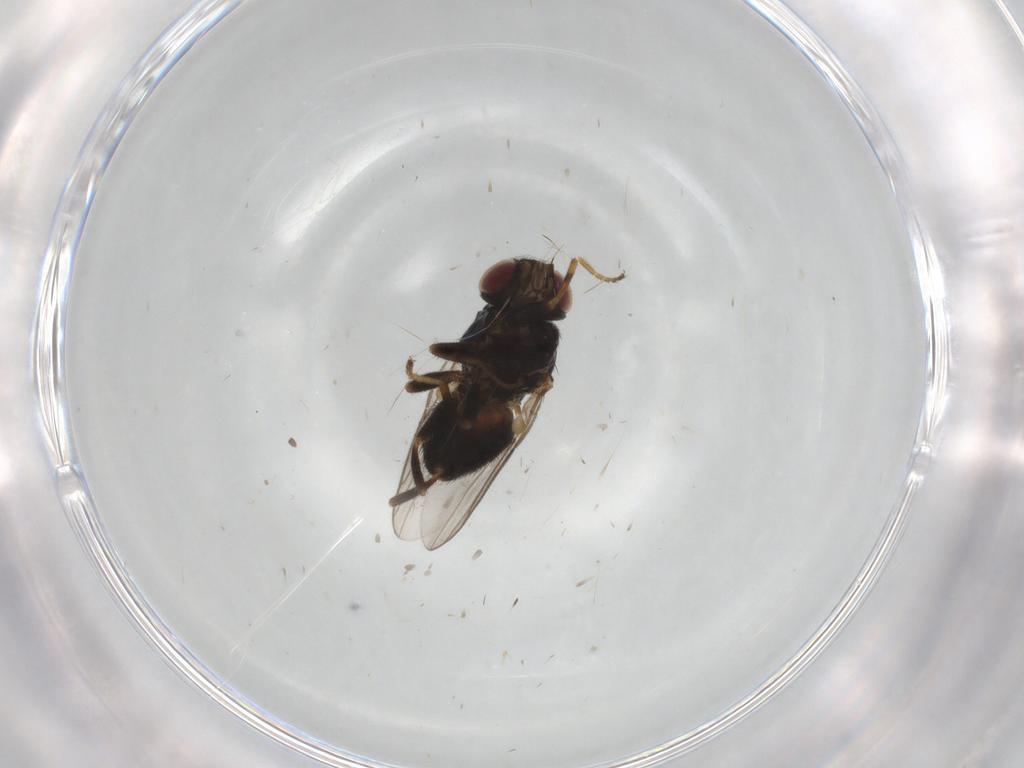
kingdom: Animalia
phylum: Arthropoda
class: Insecta
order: Diptera
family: Chloropidae
